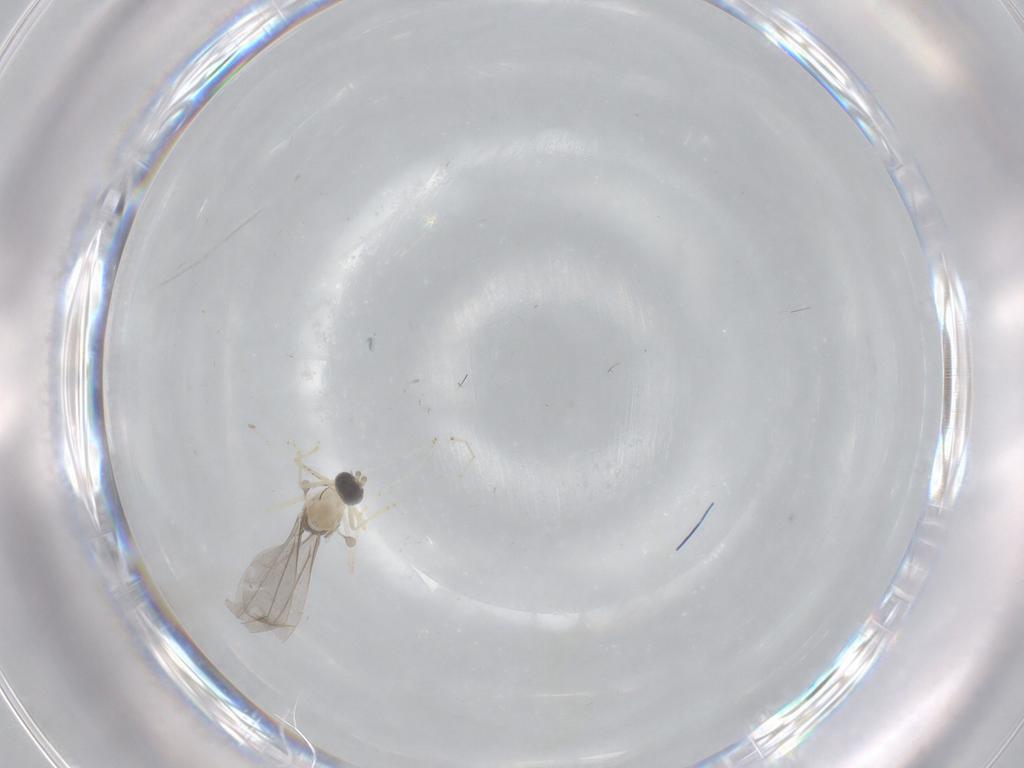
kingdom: Animalia
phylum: Arthropoda
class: Insecta
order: Diptera
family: Cecidomyiidae
